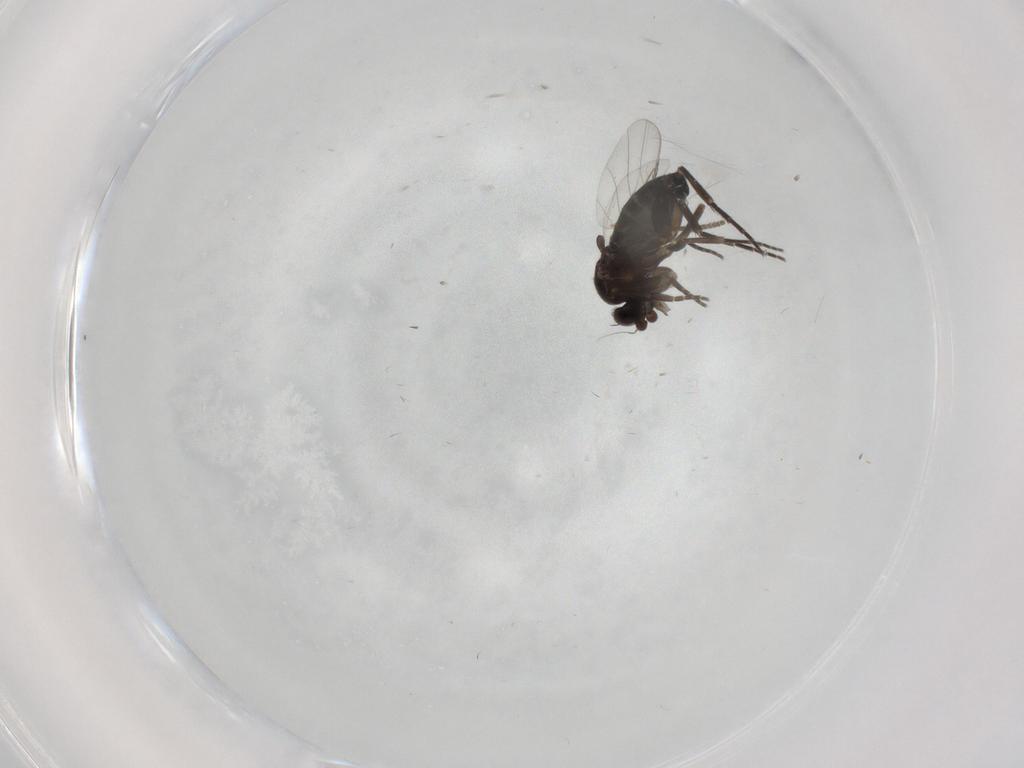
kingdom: Animalia
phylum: Arthropoda
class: Insecta
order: Diptera
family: Phoridae
